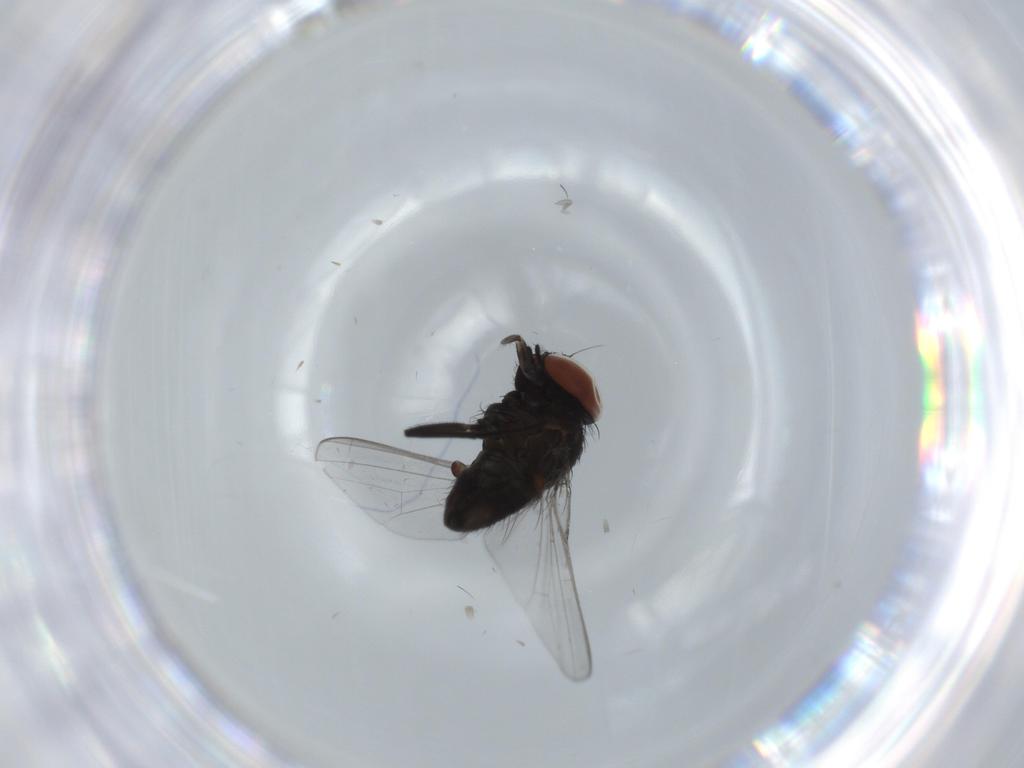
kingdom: Animalia
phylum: Arthropoda
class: Insecta
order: Diptera
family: Milichiidae
